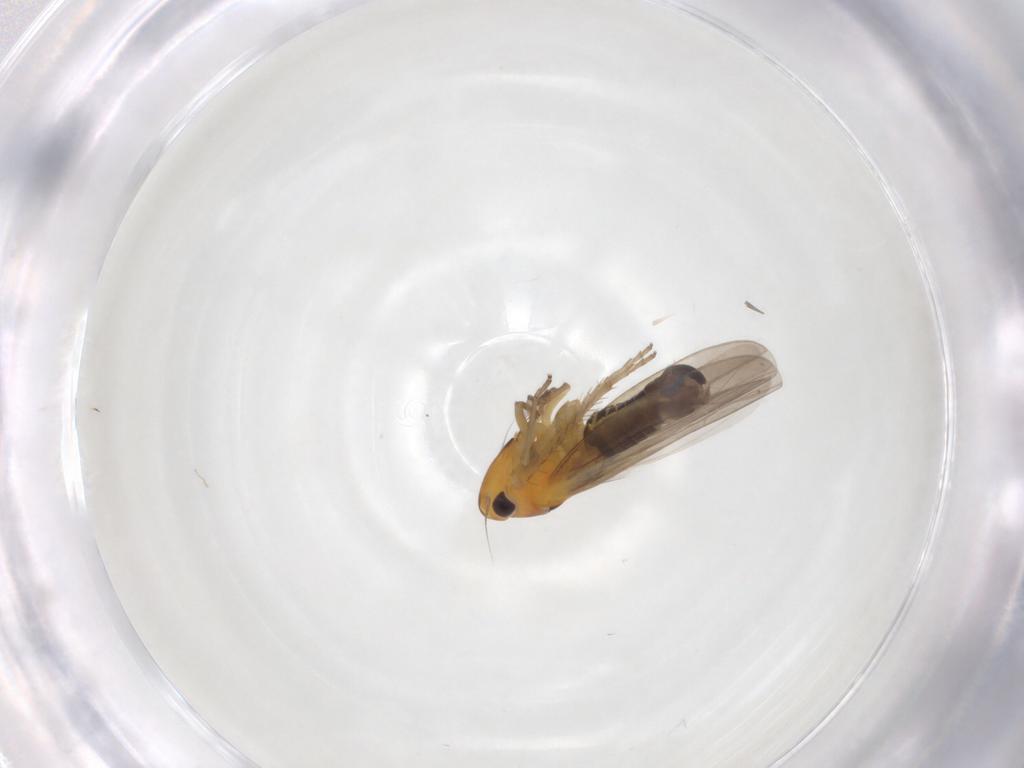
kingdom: Animalia
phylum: Arthropoda
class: Insecta
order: Hemiptera
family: Cicadellidae
